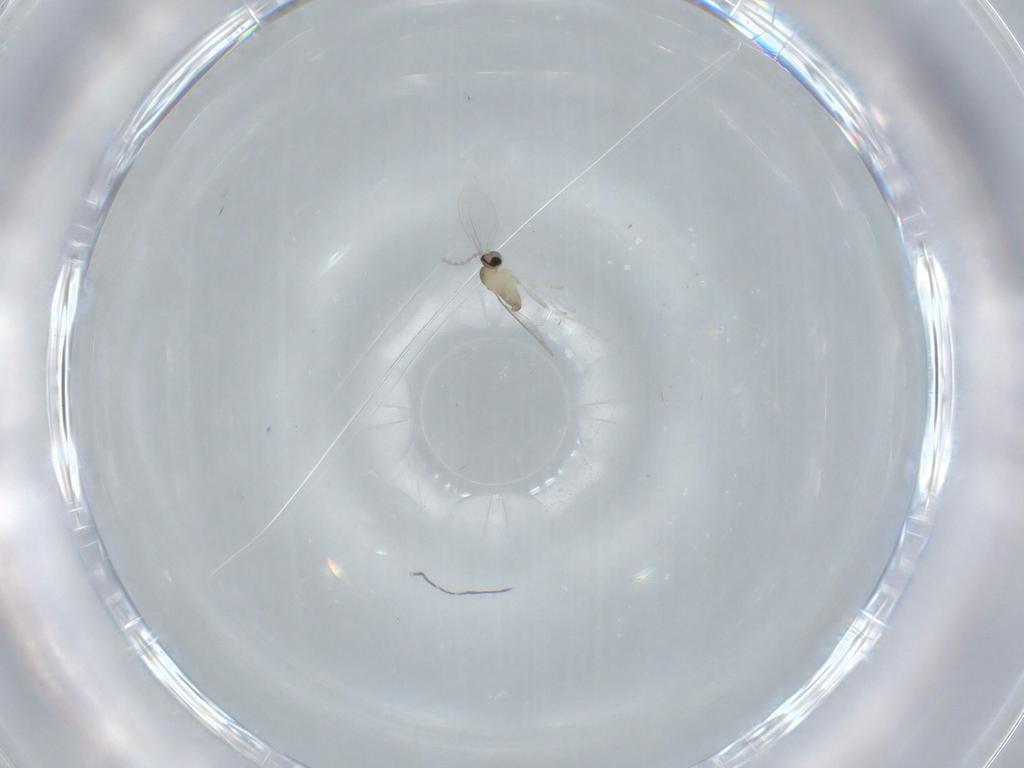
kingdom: Animalia
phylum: Arthropoda
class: Insecta
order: Diptera
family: Cecidomyiidae
